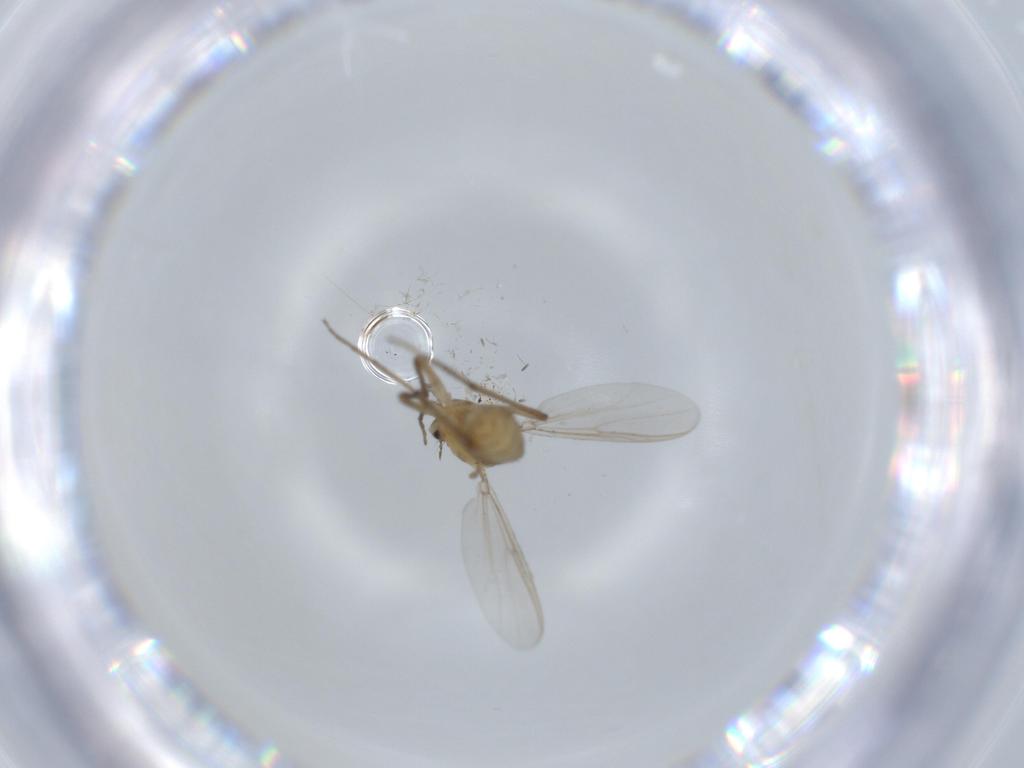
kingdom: Animalia
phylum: Arthropoda
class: Insecta
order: Diptera
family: Chironomidae
